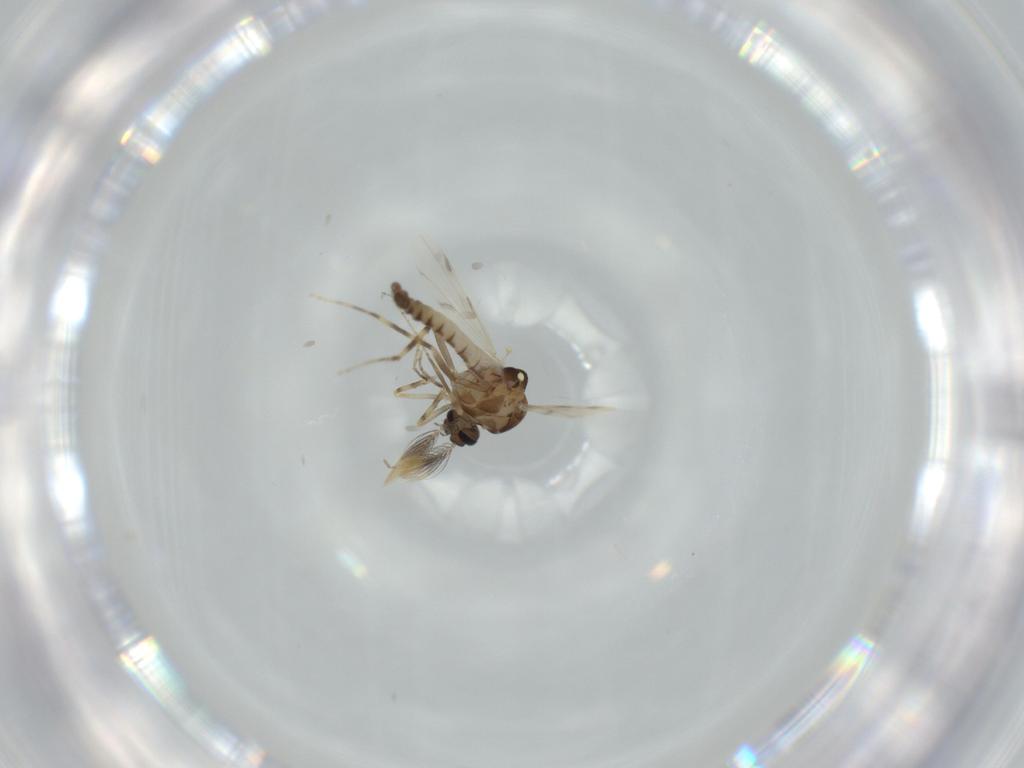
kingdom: Animalia
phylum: Arthropoda
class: Insecta
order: Diptera
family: Ceratopogonidae
